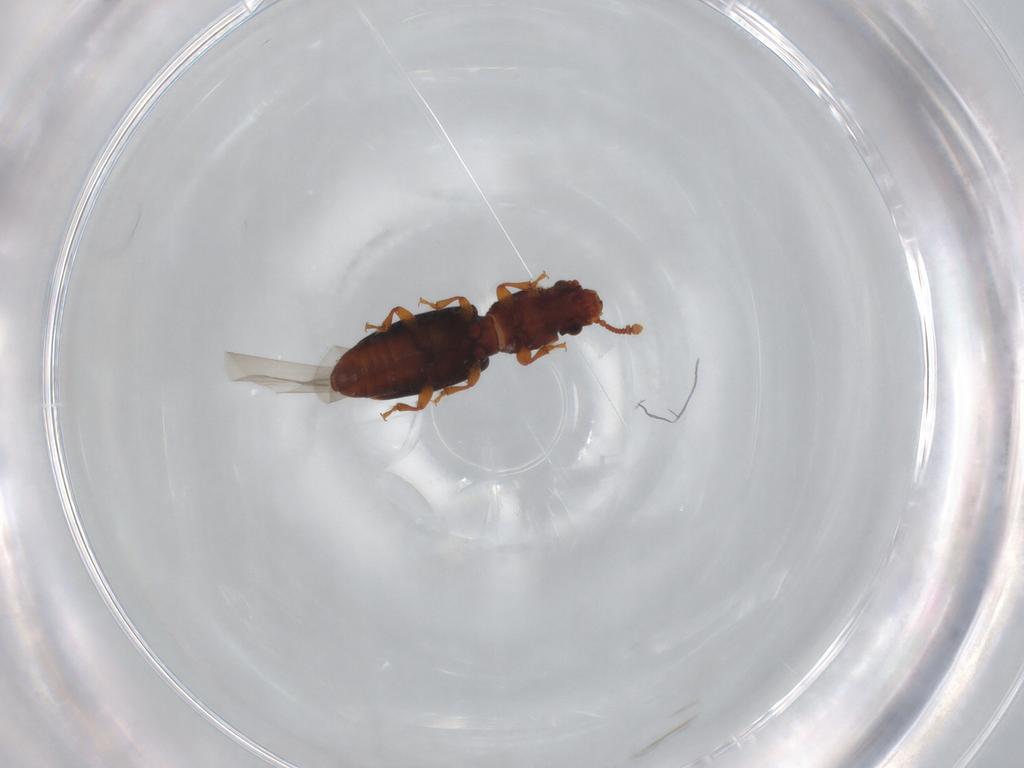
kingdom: Animalia
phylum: Arthropoda
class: Insecta
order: Coleoptera
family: Monotomidae
